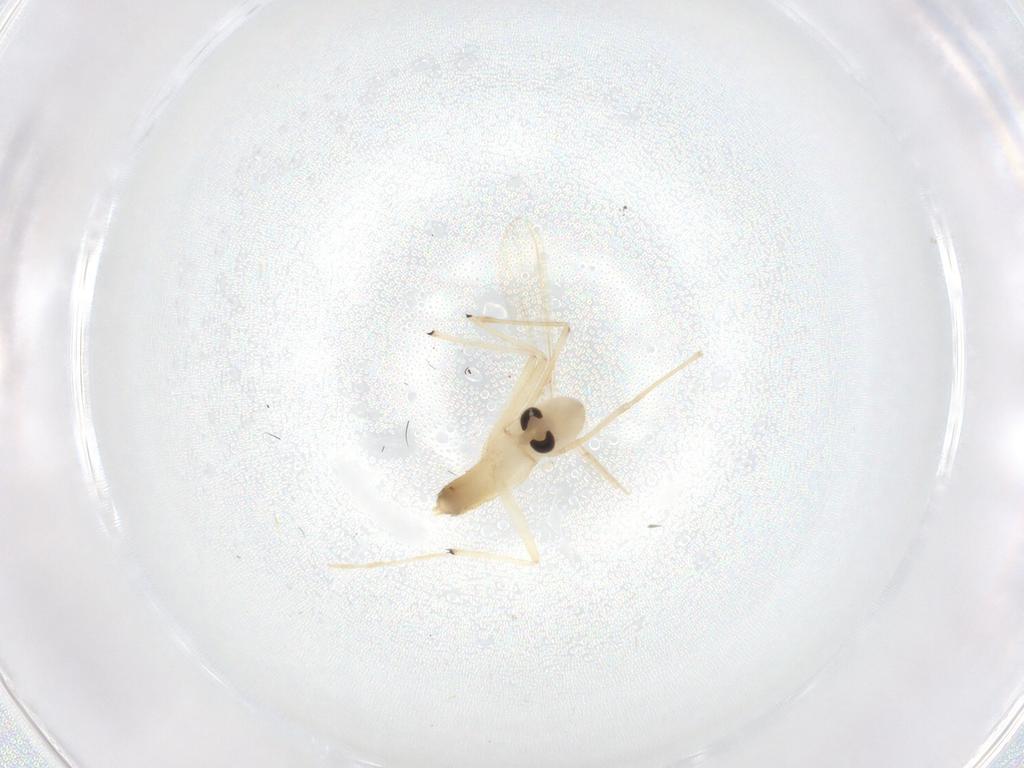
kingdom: Animalia
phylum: Arthropoda
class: Insecta
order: Diptera
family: Chironomidae
